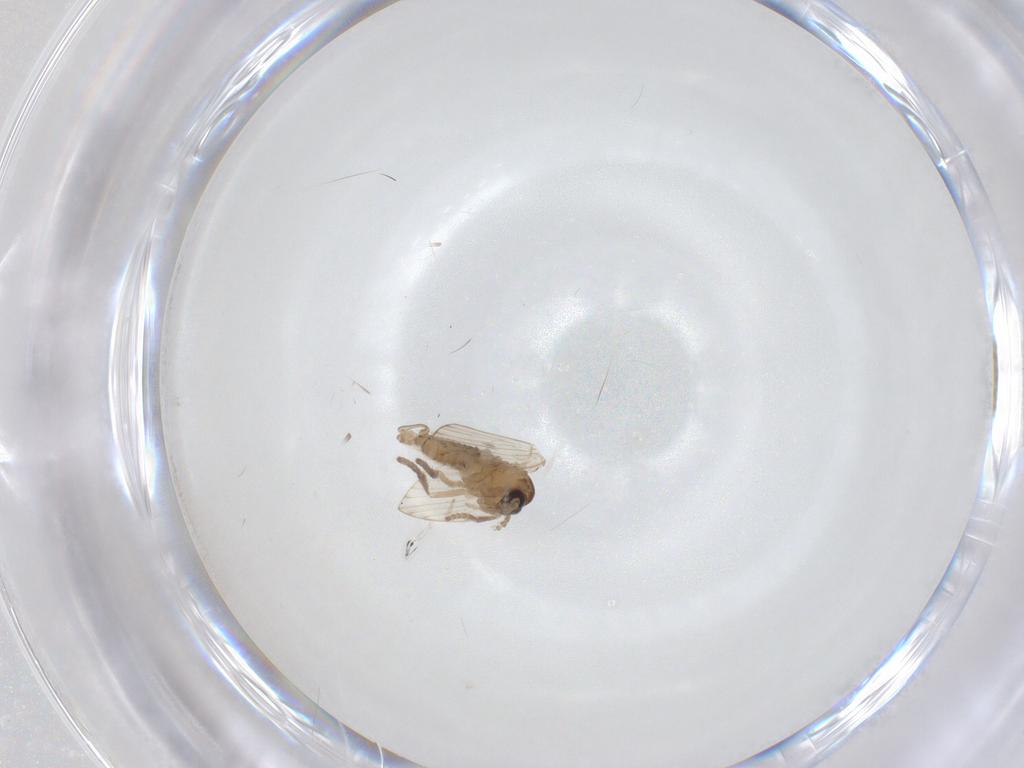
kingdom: Animalia
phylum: Arthropoda
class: Insecta
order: Diptera
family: Psychodidae
